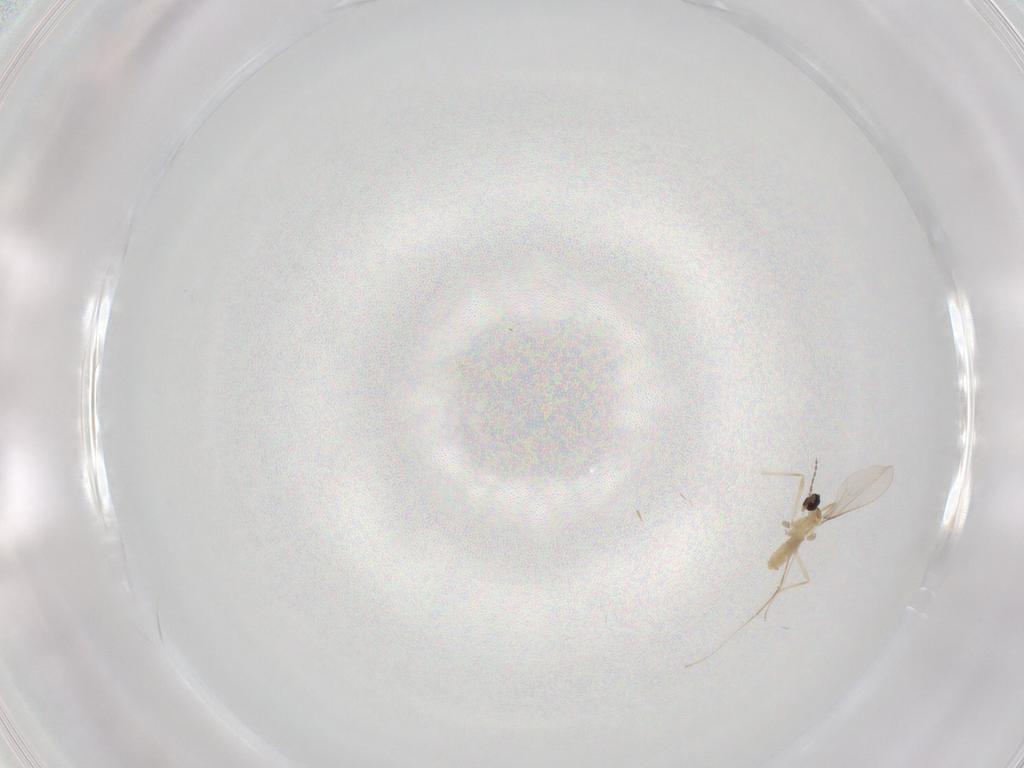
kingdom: Animalia
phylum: Arthropoda
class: Insecta
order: Diptera
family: Cecidomyiidae
